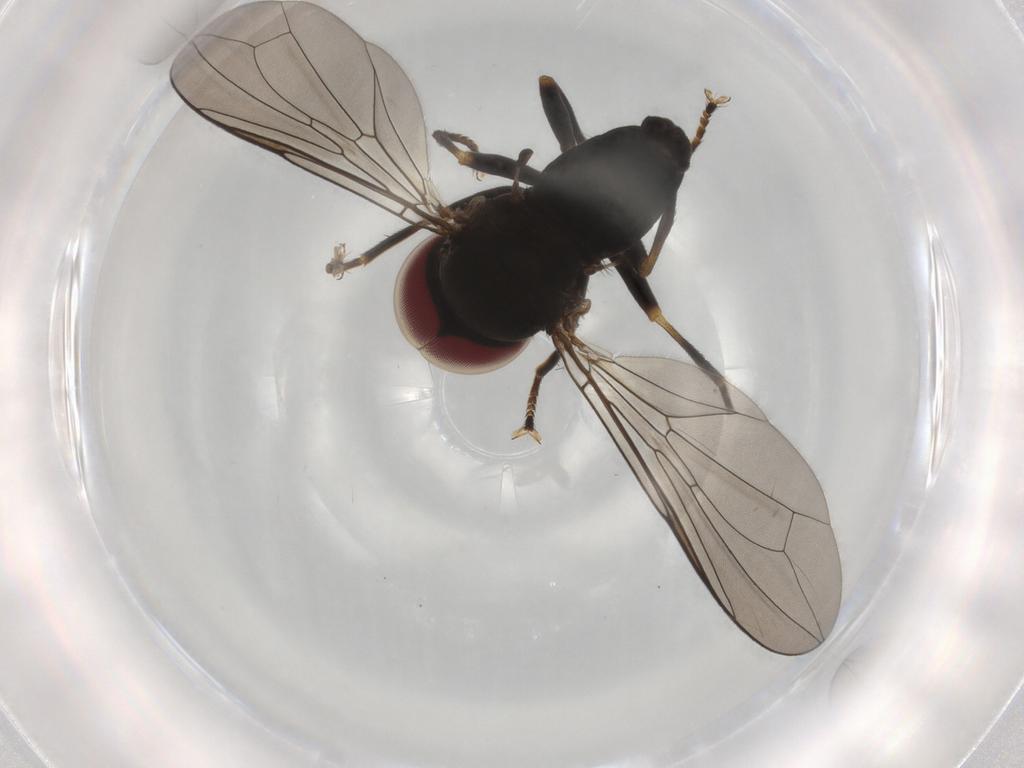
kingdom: Animalia
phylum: Arthropoda
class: Insecta
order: Diptera
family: Pipunculidae
